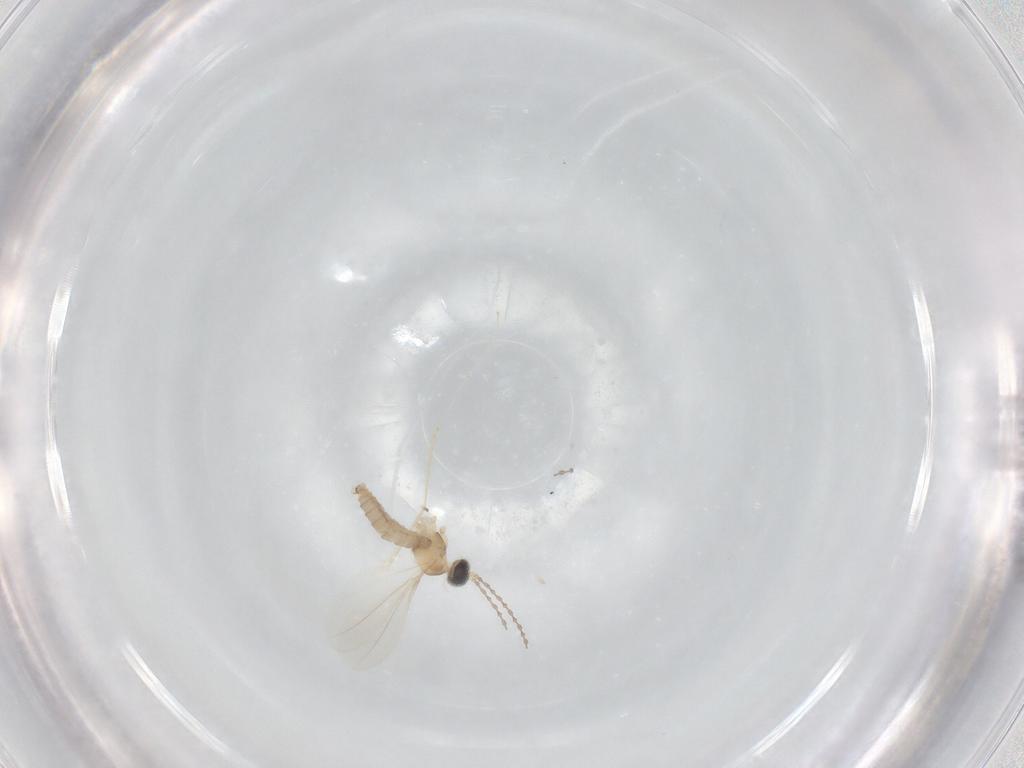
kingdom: Animalia
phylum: Arthropoda
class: Insecta
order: Diptera
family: Cecidomyiidae
